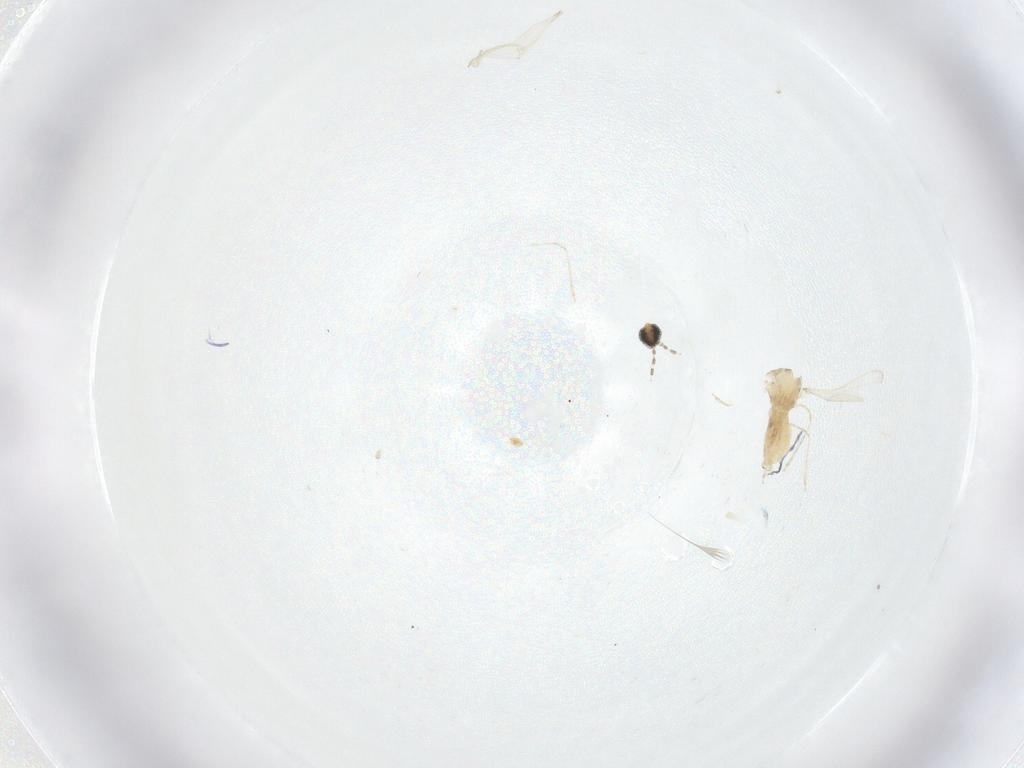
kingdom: Animalia
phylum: Arthropoda
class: Insecta
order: Diptera
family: Cecidomyiidae
